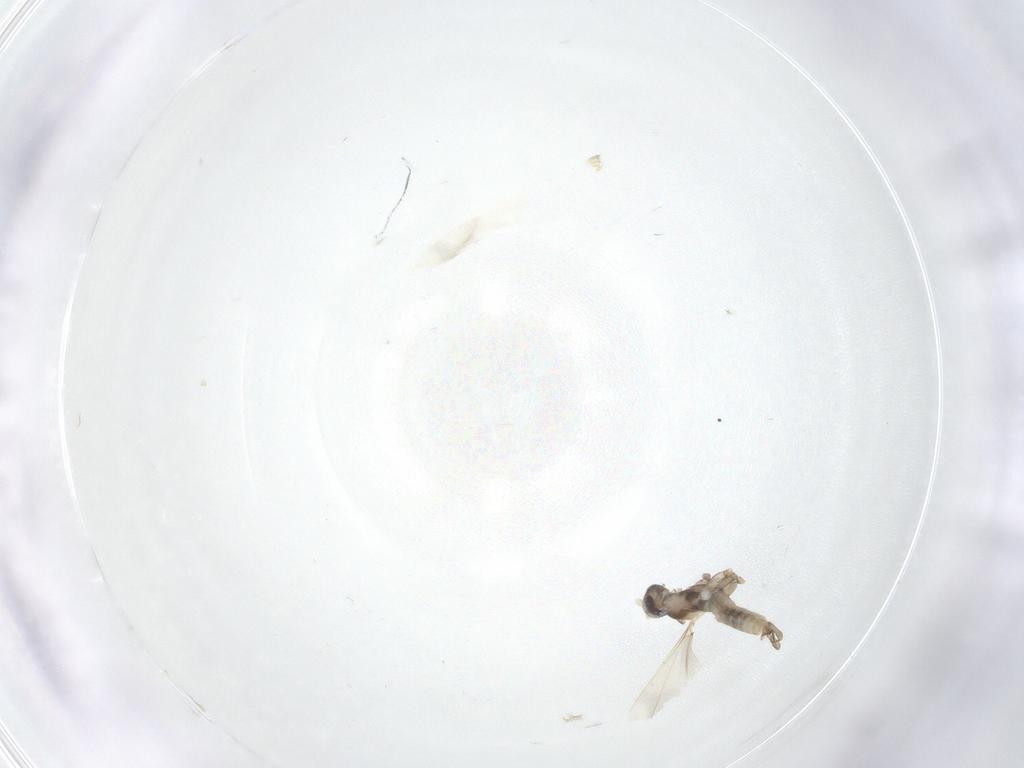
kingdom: Animalia
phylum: Arthropoda
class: Insecta
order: Diptera
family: Cecidomyiidae
